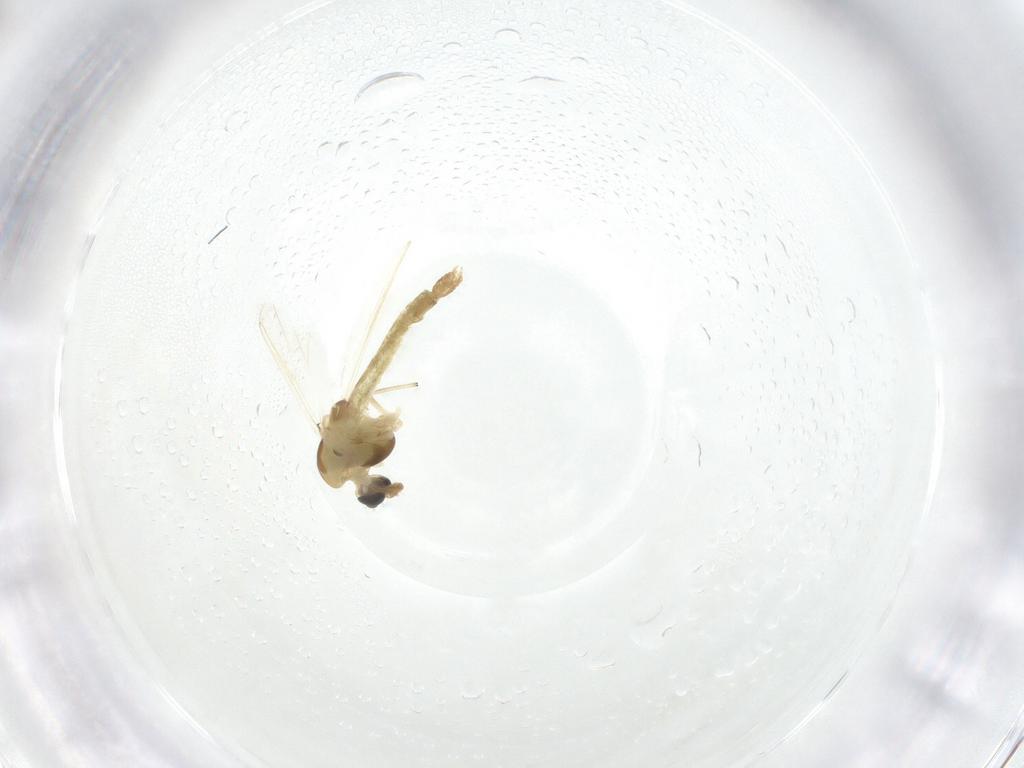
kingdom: Animalia
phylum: Arthropoda
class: Insecta
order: Diptera
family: Chironomidae
